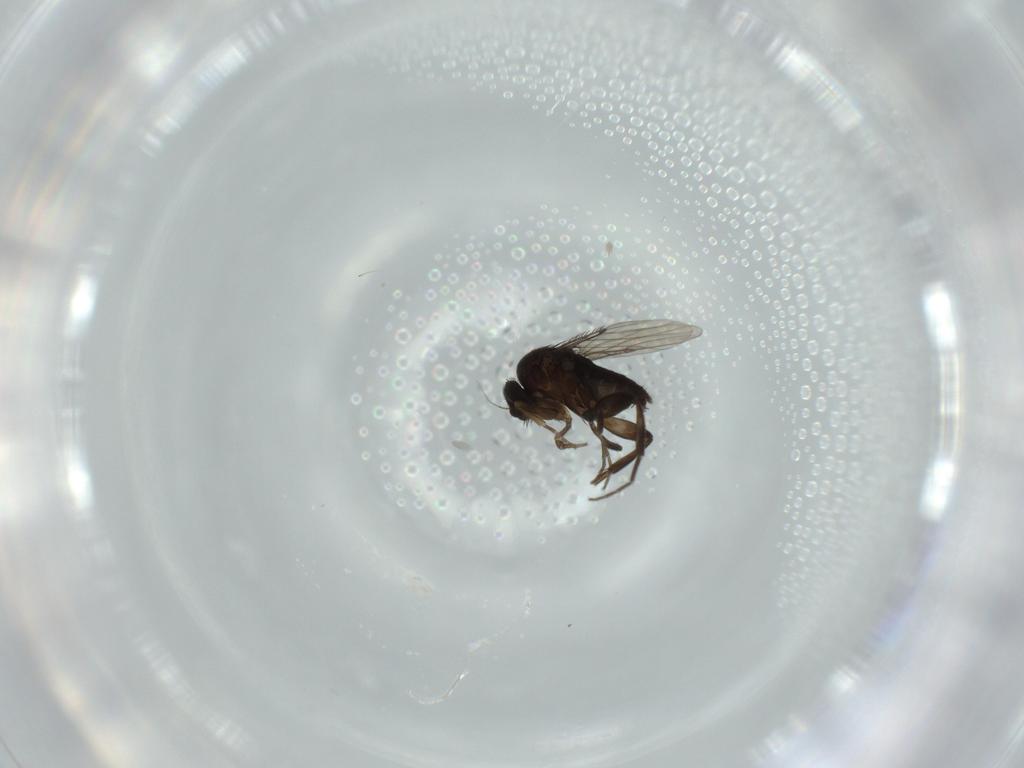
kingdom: Animalia
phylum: Arthropoda
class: Insecta
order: Diptera
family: Phoridae
